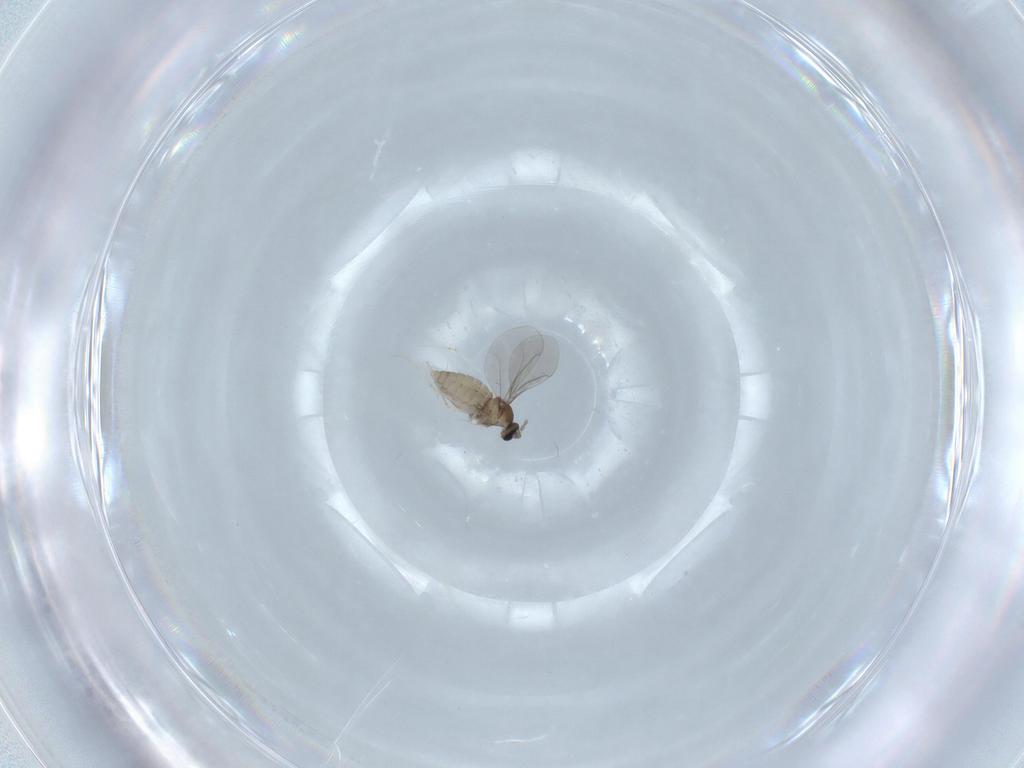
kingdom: Animalia
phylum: Arthropoda
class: Insecta
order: Diptera
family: Cecidomyiidae
